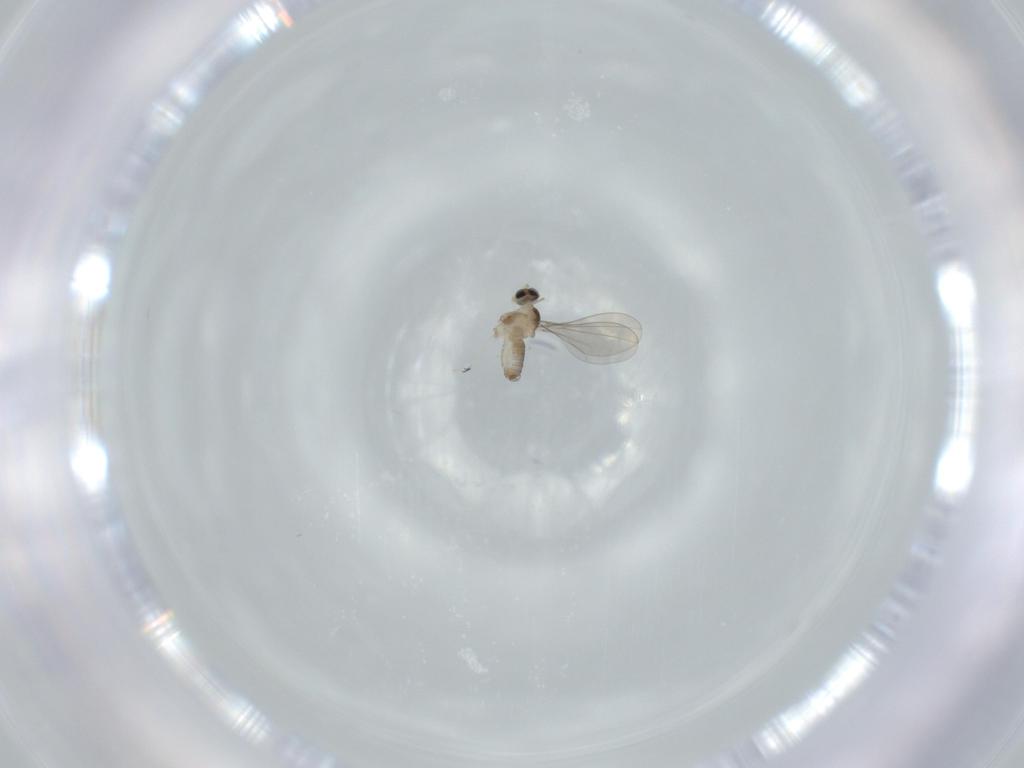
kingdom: Animalia
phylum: Arthropoda
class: Insecta
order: Diptera
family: Cecidomyiidae
